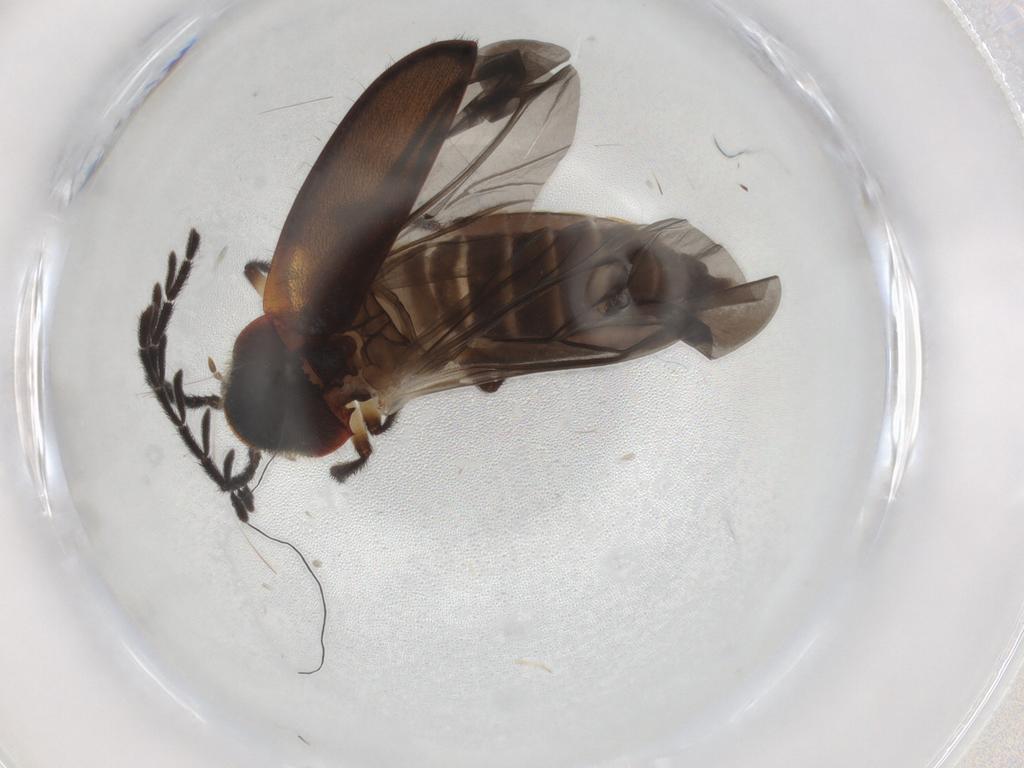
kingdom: Animalia
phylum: Arthropoda
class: Insecta
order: Coleoptera
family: Ptilodactylidae
